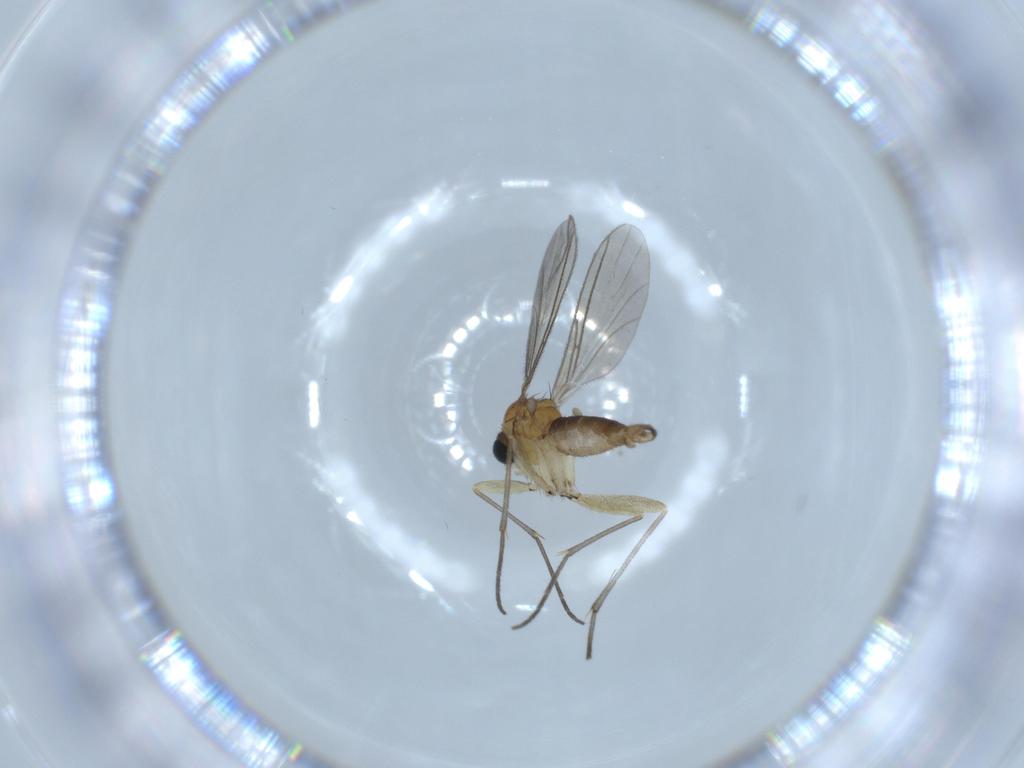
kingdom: Animalia
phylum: Arthropoda
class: Insecta
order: Diptera
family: Sciaridae
